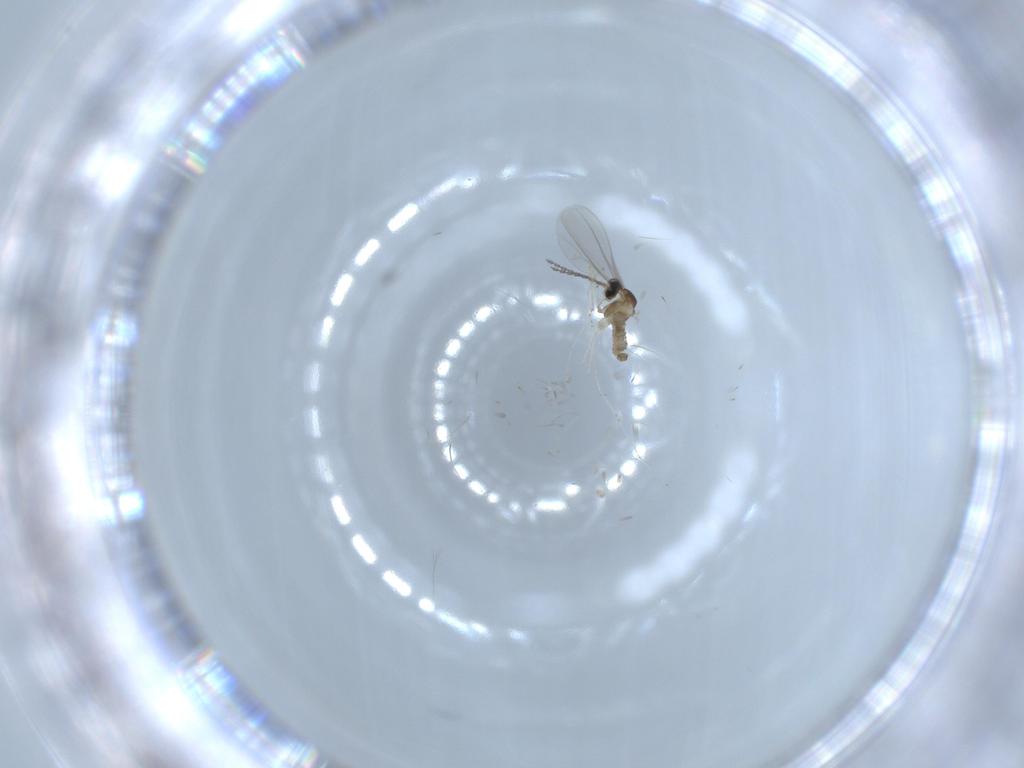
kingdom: Animalia
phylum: Arthropoda
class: Insecta
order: Diptera
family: Cecidomyiidae
